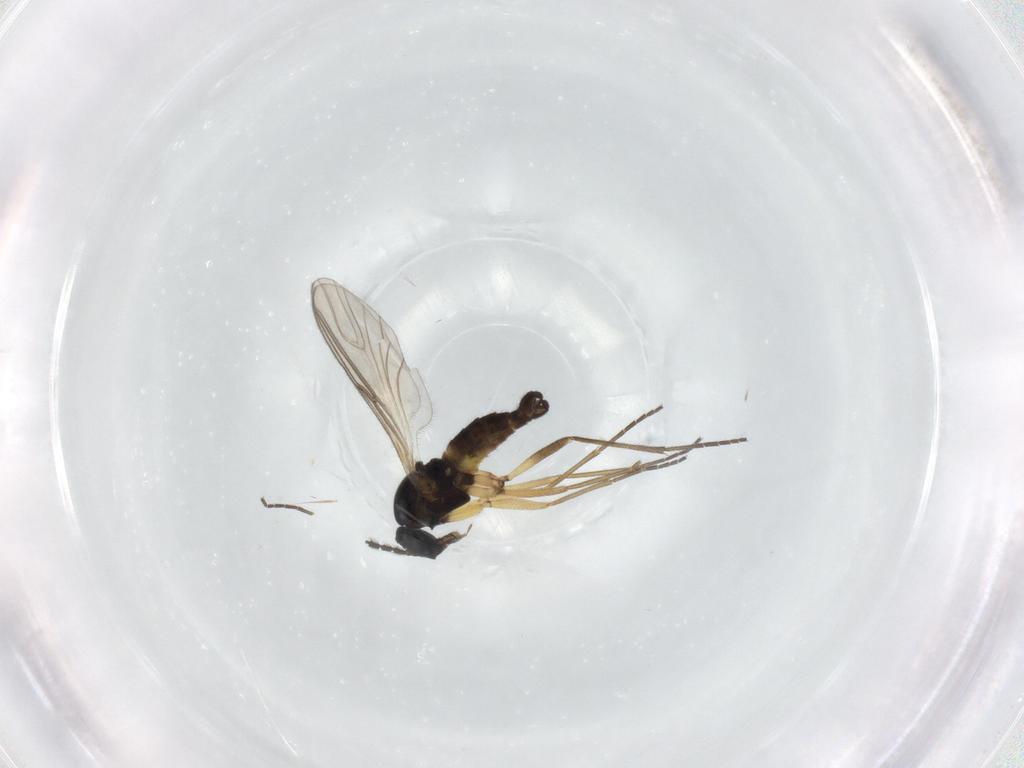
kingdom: Animalia
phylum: Arthropoda
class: Insecta
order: Diptera
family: Sciaridae
